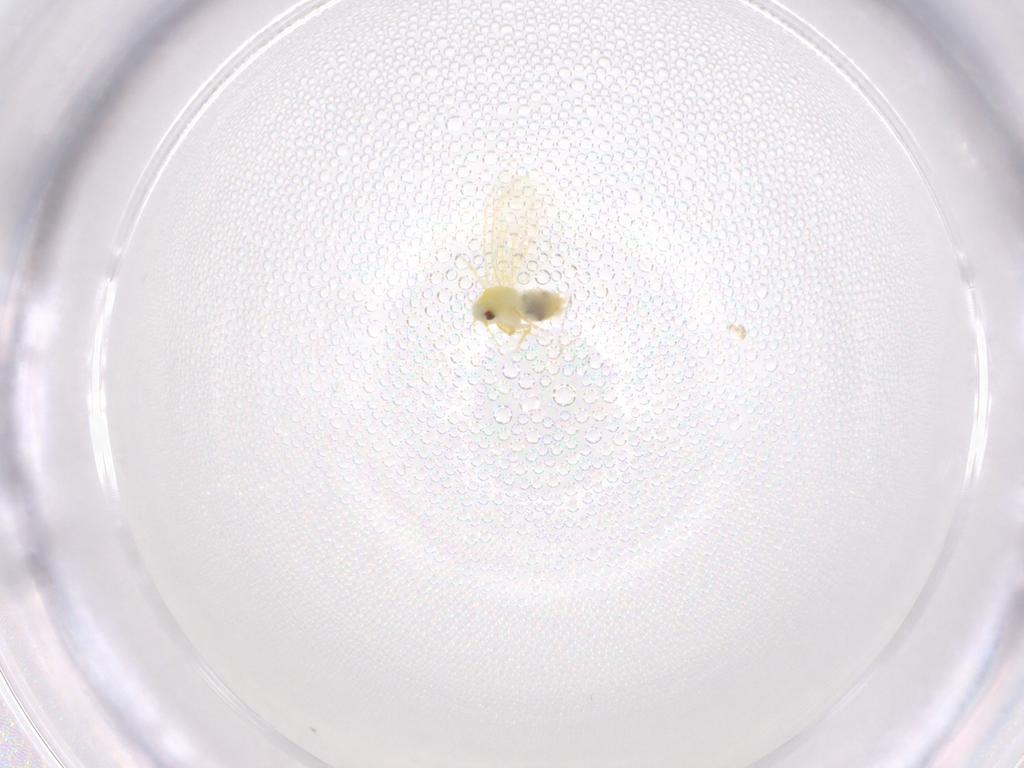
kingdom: Animalia
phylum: Arthropoda
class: Insecta
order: Hemiptera
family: Aleyrodidae
